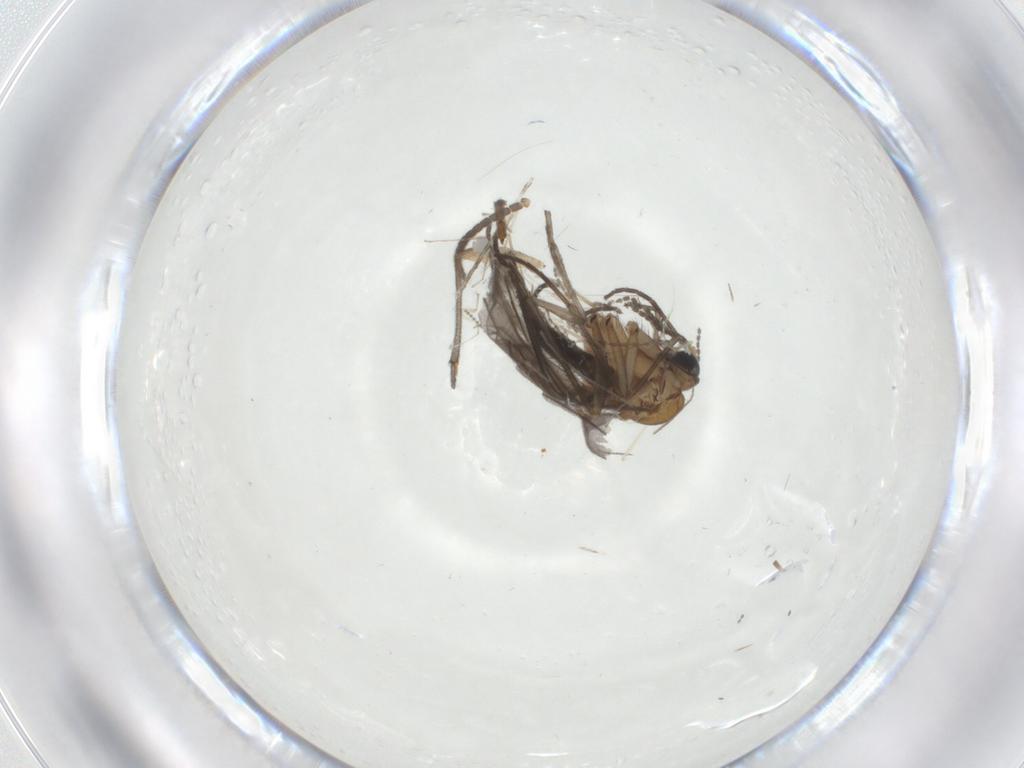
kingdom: Animalia
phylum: Arthropoda
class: Insecta
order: Diptera
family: Mycetophilidae
